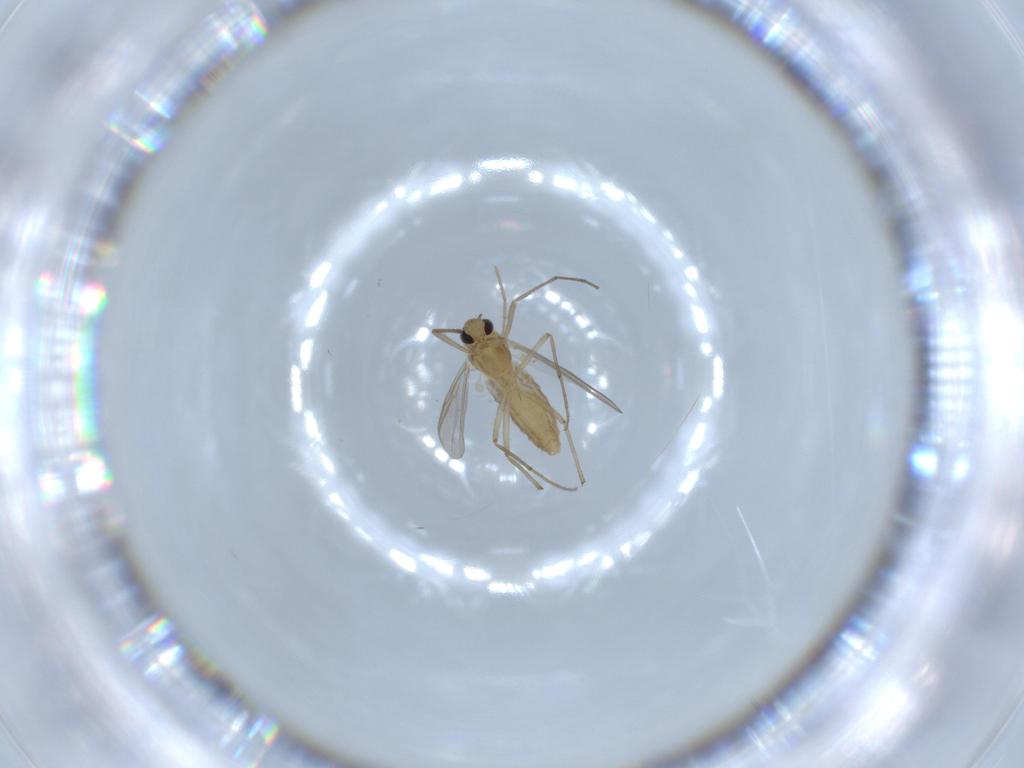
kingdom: Animalia
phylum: Arthropoda
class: Insecta
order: Diptera
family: Chironomidae
